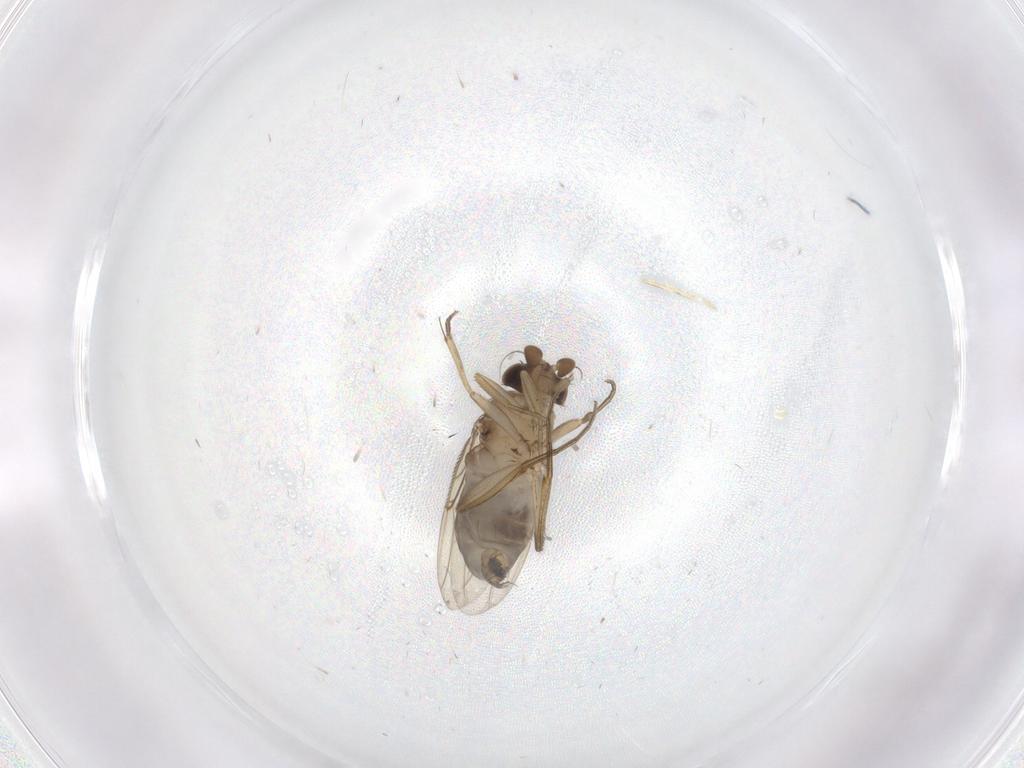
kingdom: Animalia
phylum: Arthropoda
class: Insecta
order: Diptera
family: Phoridae
